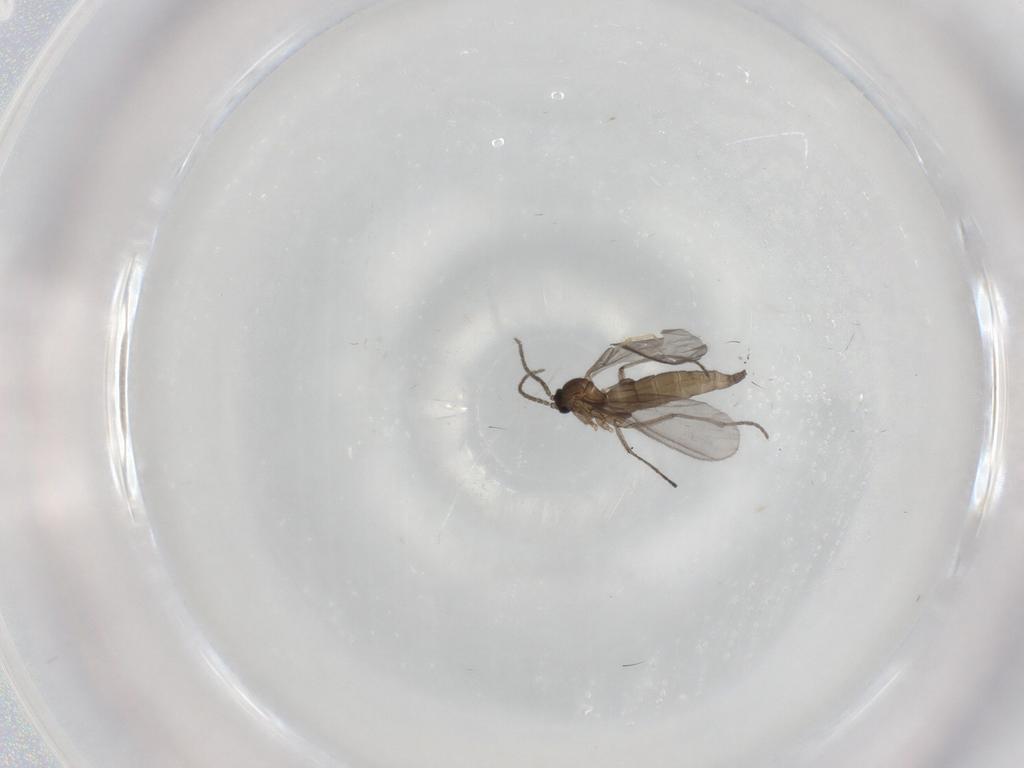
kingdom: Animalia
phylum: Arthropoda
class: Insecta
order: Diptera
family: Sciaridae
